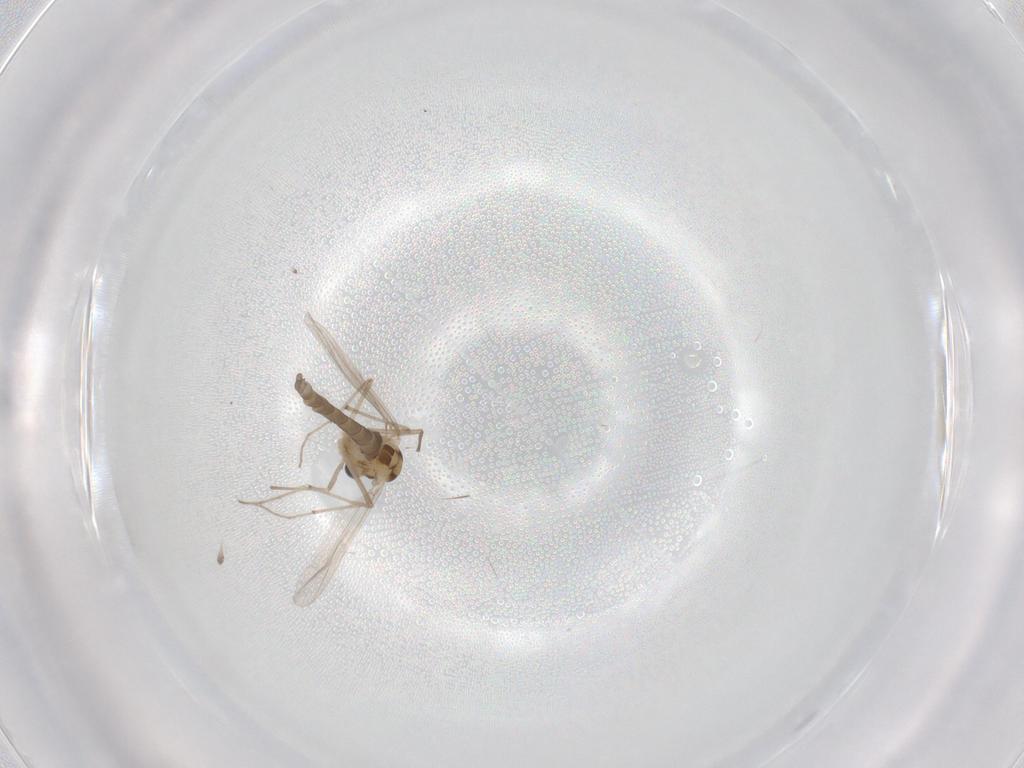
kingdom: Animalia
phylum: Arthropoda
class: Insecta
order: Diptera
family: Cecidomyiidae
